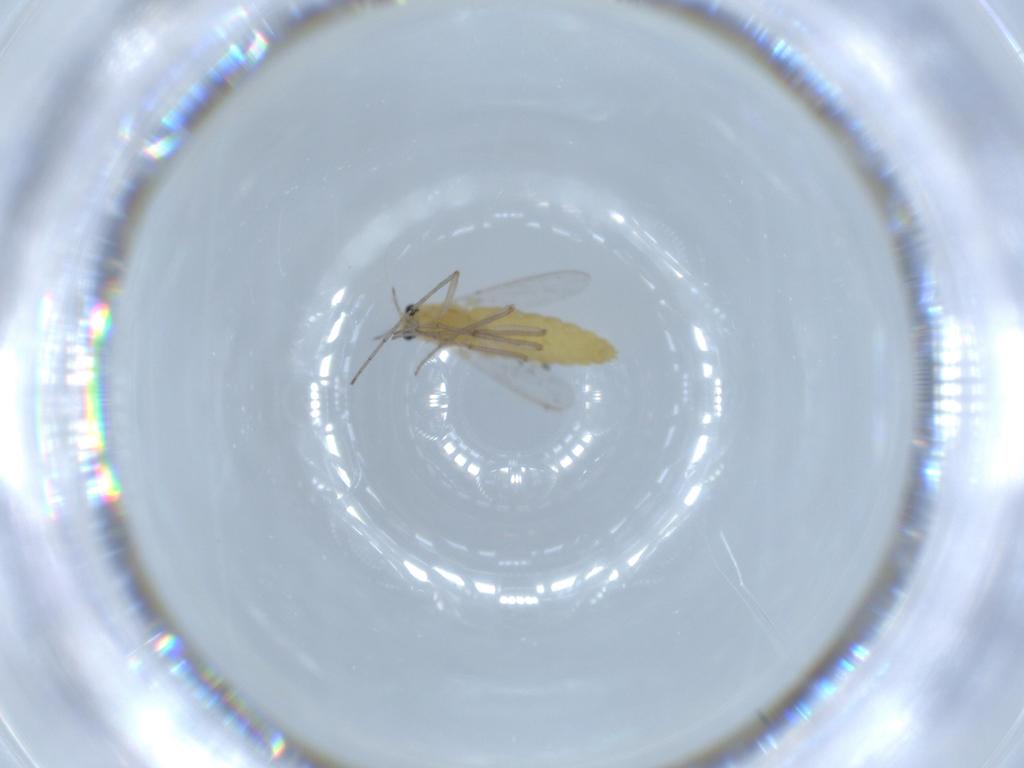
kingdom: Animalia
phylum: Arthropoda
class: Insecta
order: Diptera
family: Chironomidae
